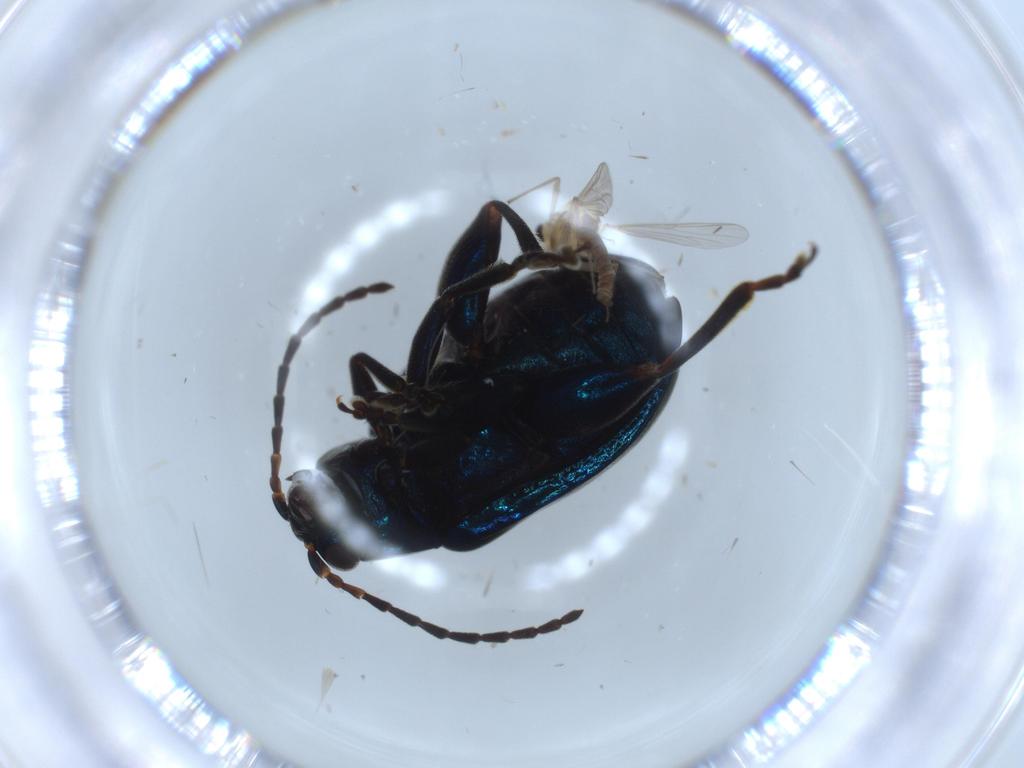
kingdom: Animalia
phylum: Arthropoda
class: Insecta
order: Coleoptera
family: Chrysomelidae
